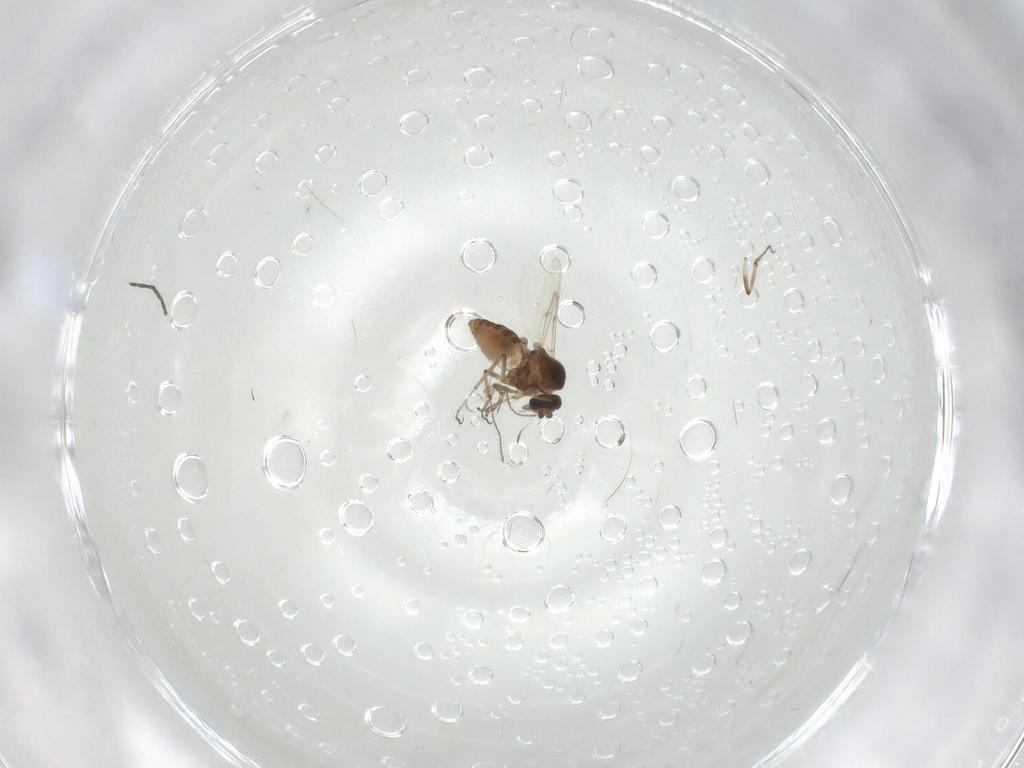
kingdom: Animalia
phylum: Arthropoda
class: Insecta
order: Diptera
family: Ceratopogonidae
